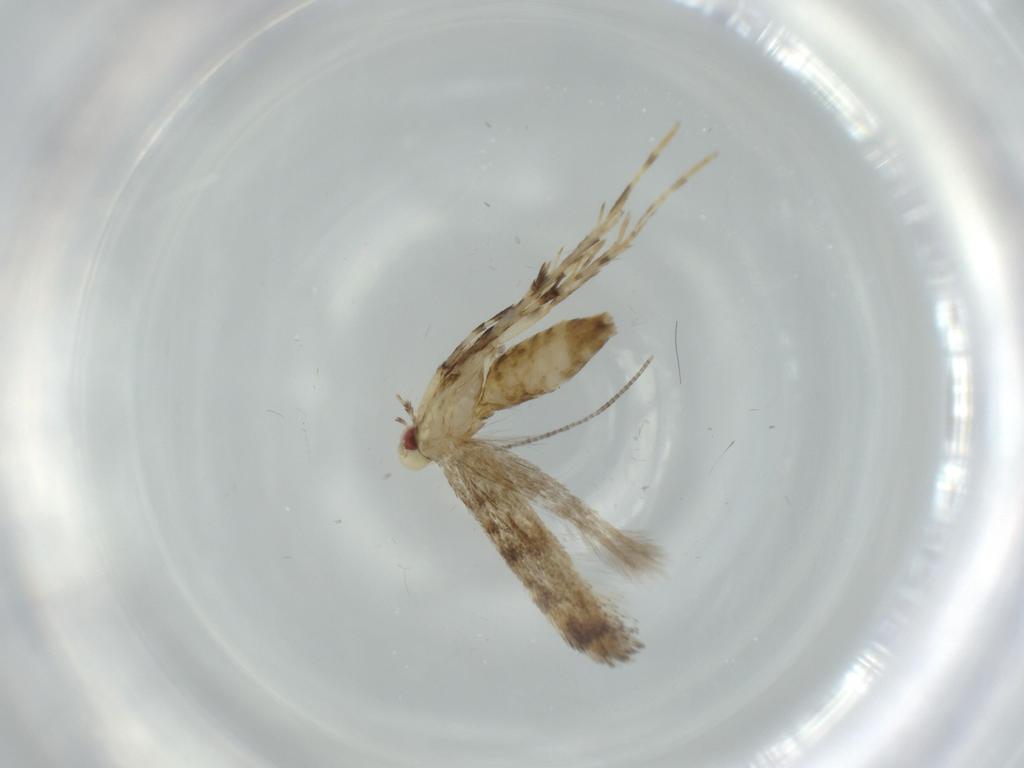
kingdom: Animalia
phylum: Arthropoda
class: Insecta
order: Lepidoptera
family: Gracillariidae
